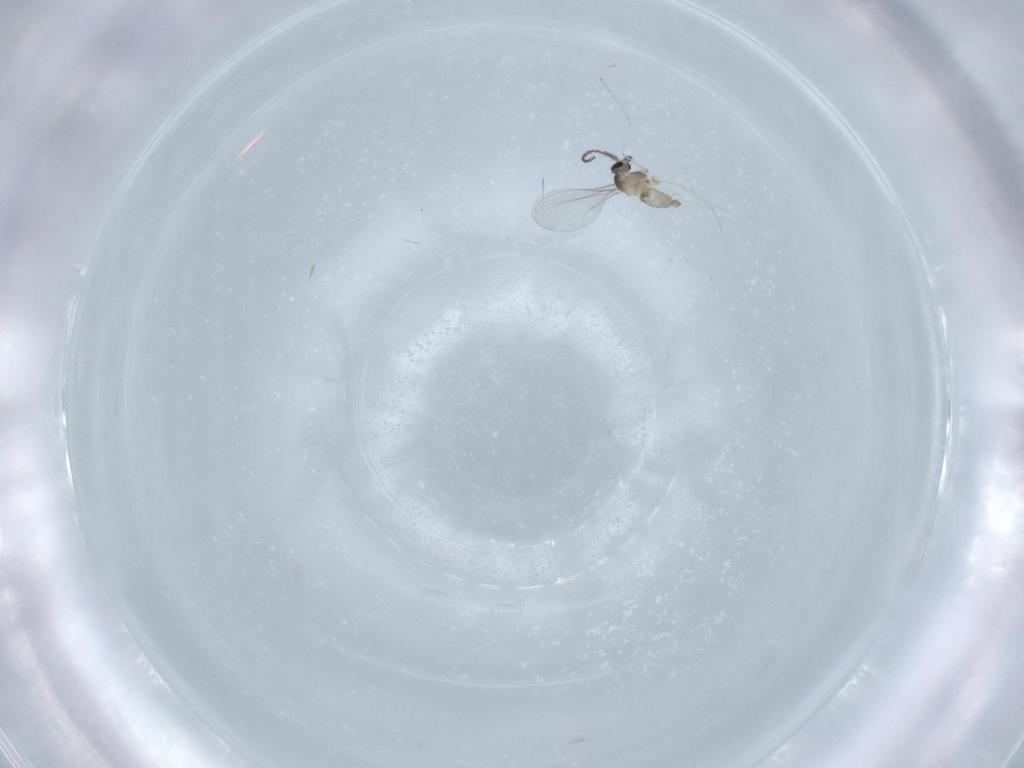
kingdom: Animalia
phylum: Arthropoda
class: Insecta
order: Diptera
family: Cecidomyiidae
